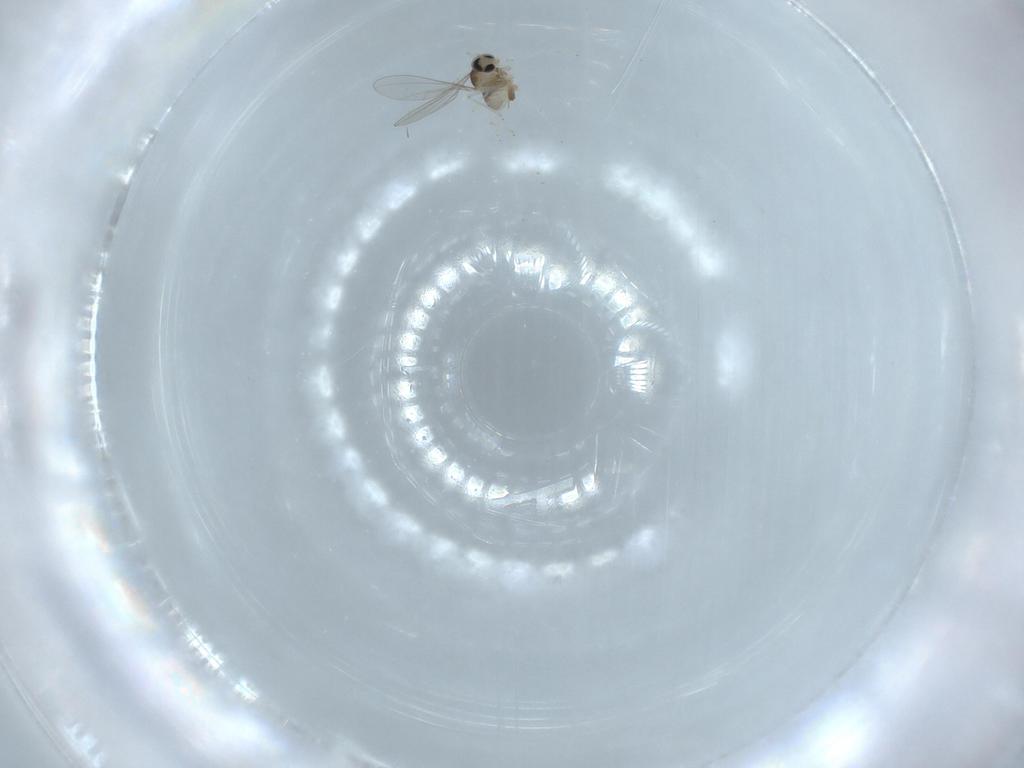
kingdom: Animalia
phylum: Arthropoda
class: Insecta
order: Diptera
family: Cecidomyiidae
